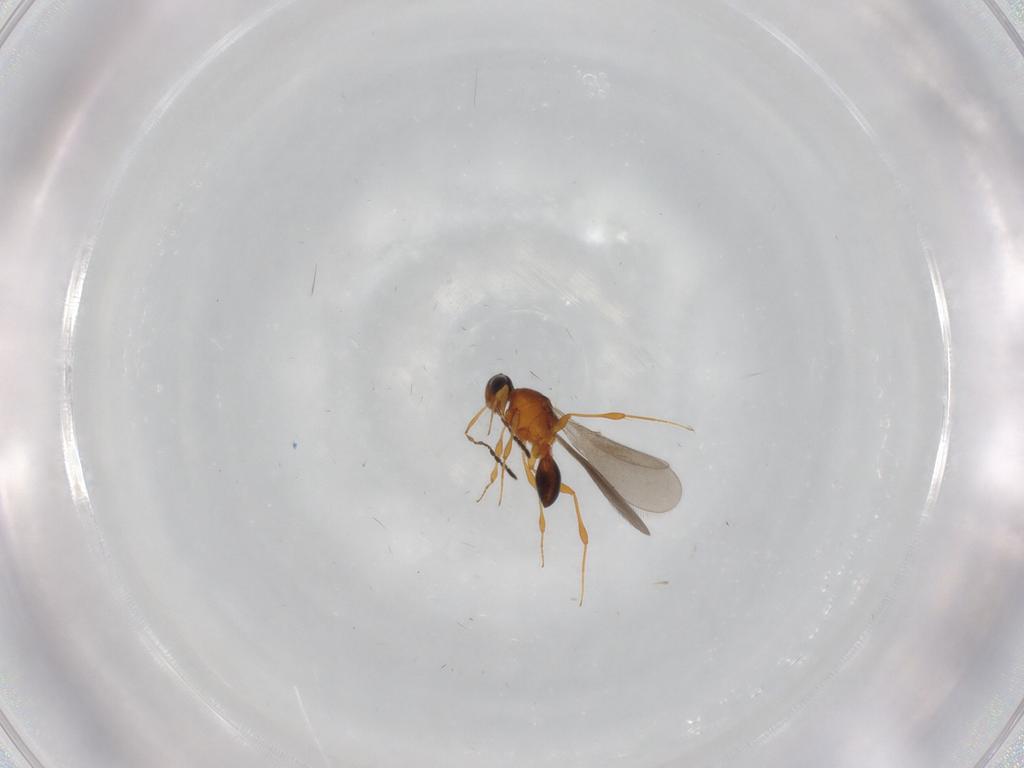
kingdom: Animalia
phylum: Arthropoda
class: Insecta
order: Hymenoptera
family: Platygastridae
